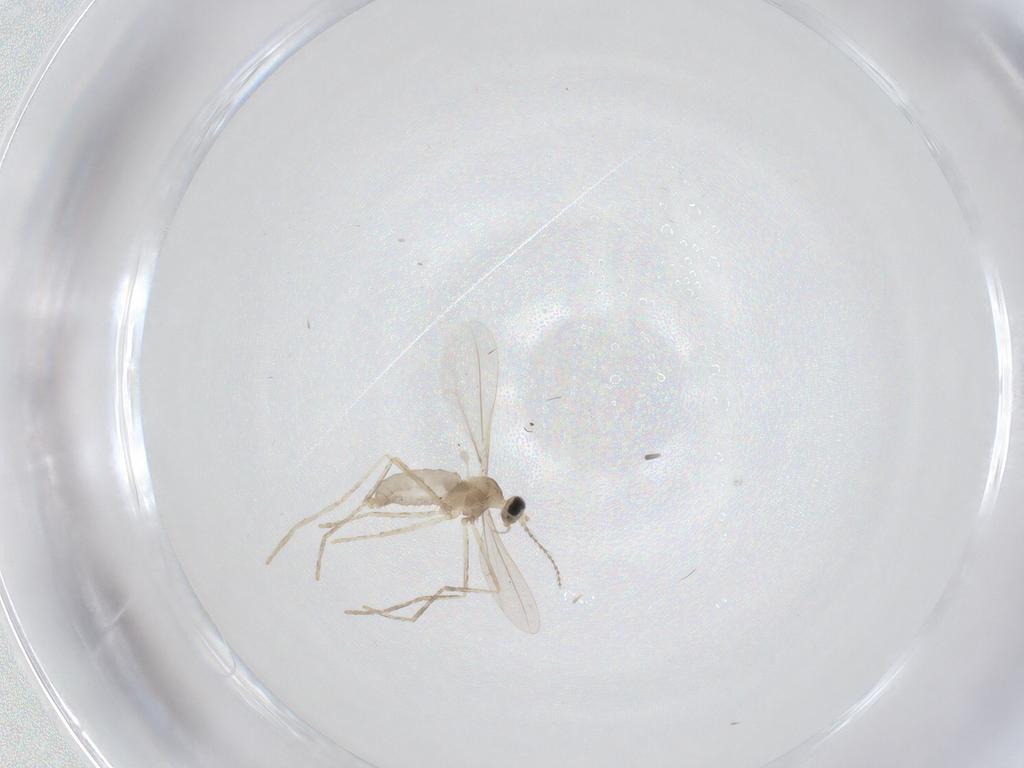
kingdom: Animalia
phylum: Arthropoda
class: Insecta
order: Diptera
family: Cecidomyiidae
